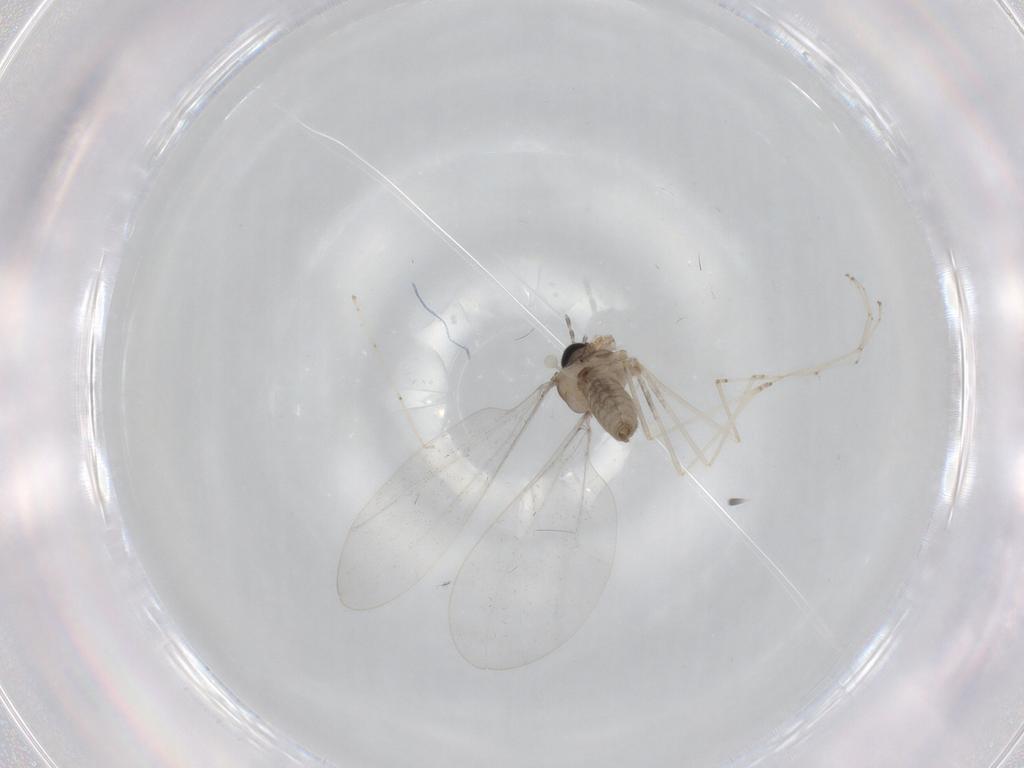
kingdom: Animalia
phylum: Arthropoda
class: Insecta
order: Diptera
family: Cecidomyiidae
